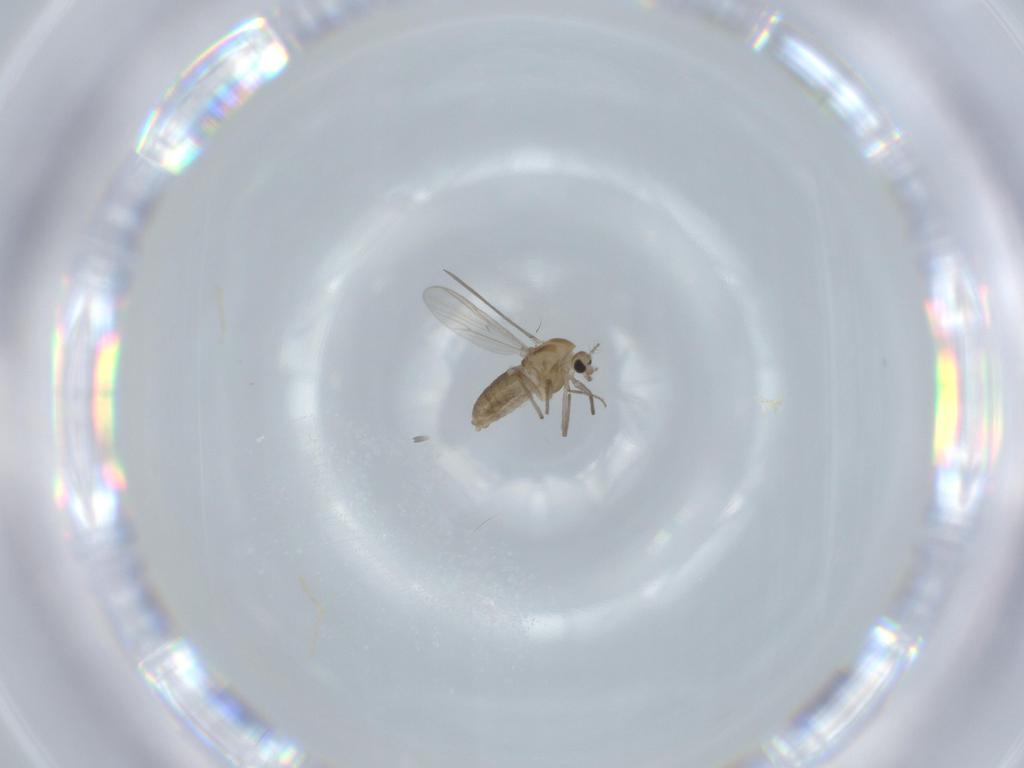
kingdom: Animalia
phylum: Arthropoda
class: Insecta
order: Diptera
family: Chironomidae
